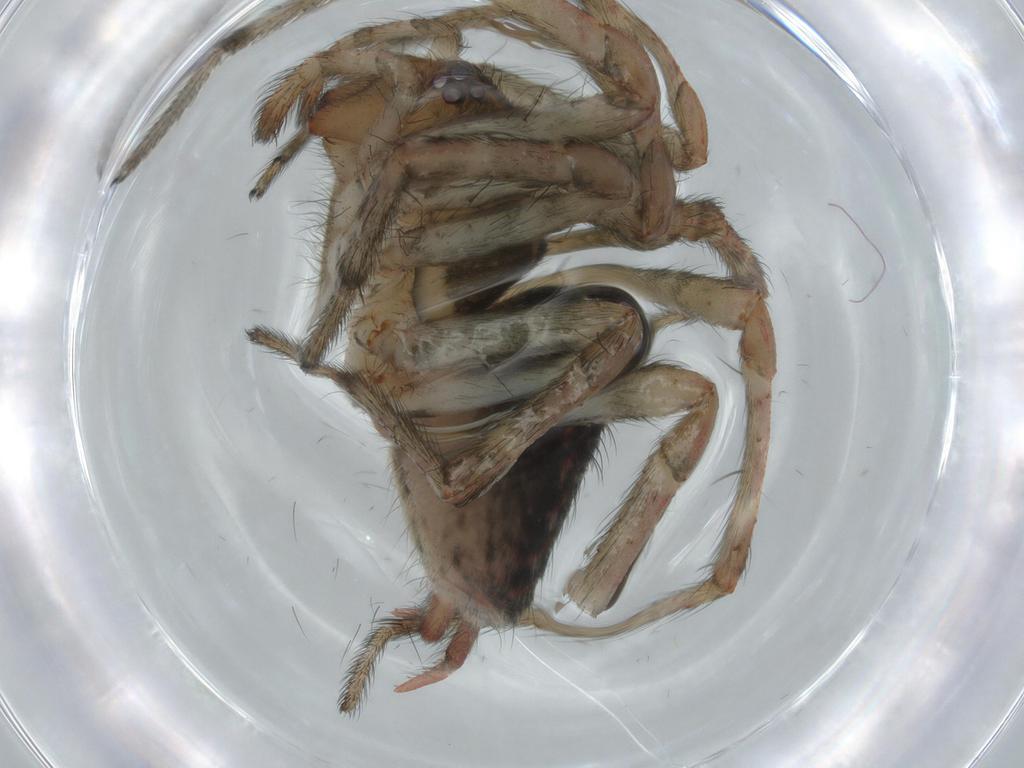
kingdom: Animalia
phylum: Arthropoda
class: Arachnida
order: Araneae
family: Agelenidae
